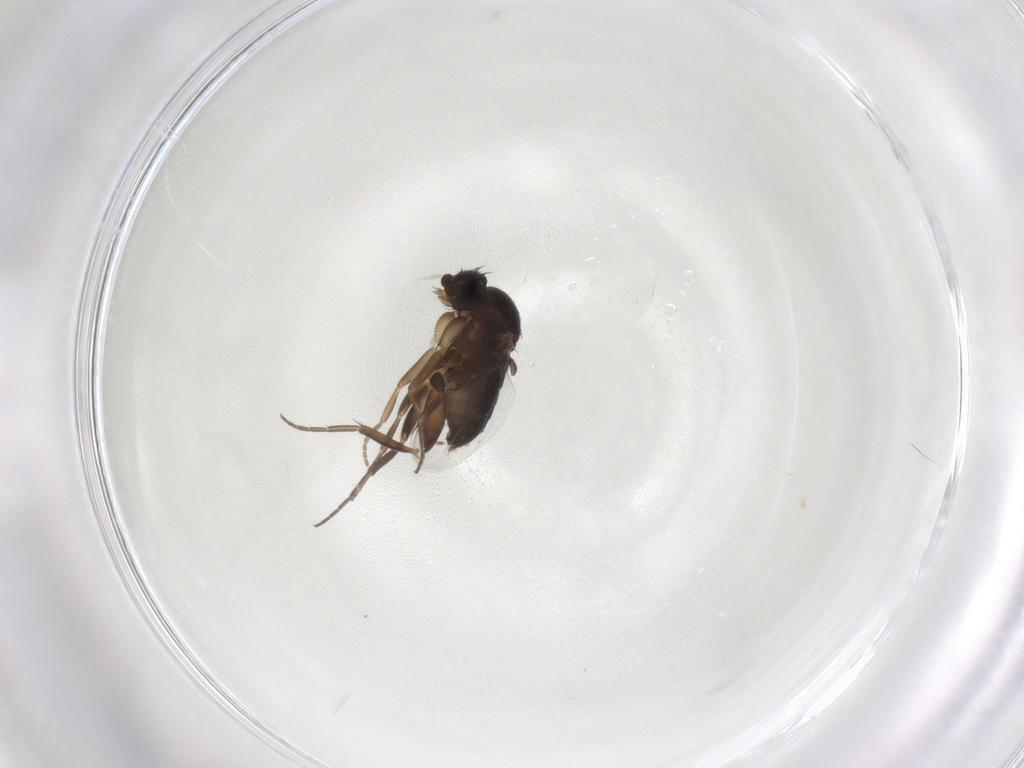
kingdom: Animalia
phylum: Arthropoda
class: Insecta
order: Diptera
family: Phoridae
